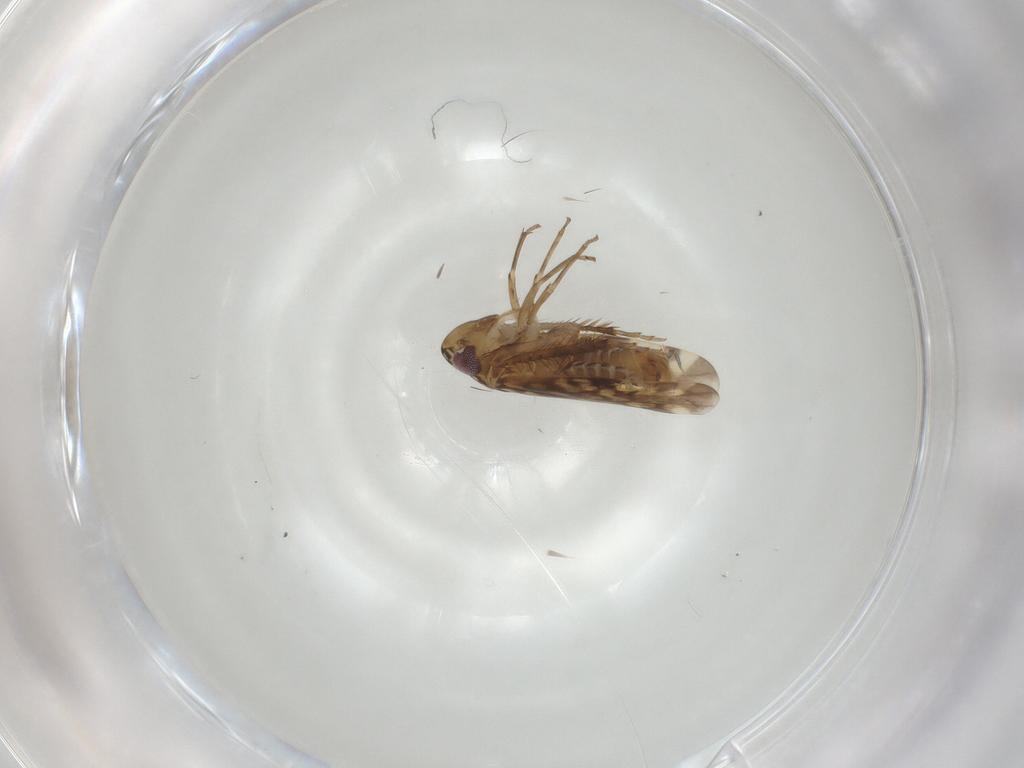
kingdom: Animalia
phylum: Arthropoda
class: Insecta
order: Hemiptera
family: Cicadellidae
